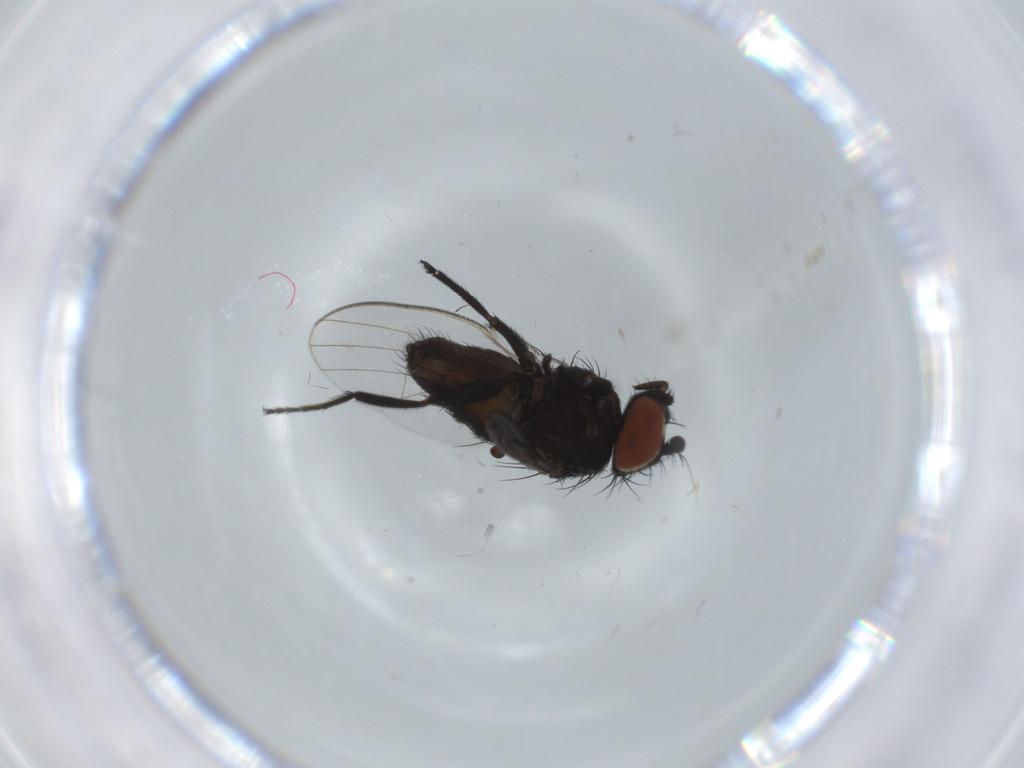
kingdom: Animalia
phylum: Arthropoda
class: Insecta
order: Diptera
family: Milichiidae
